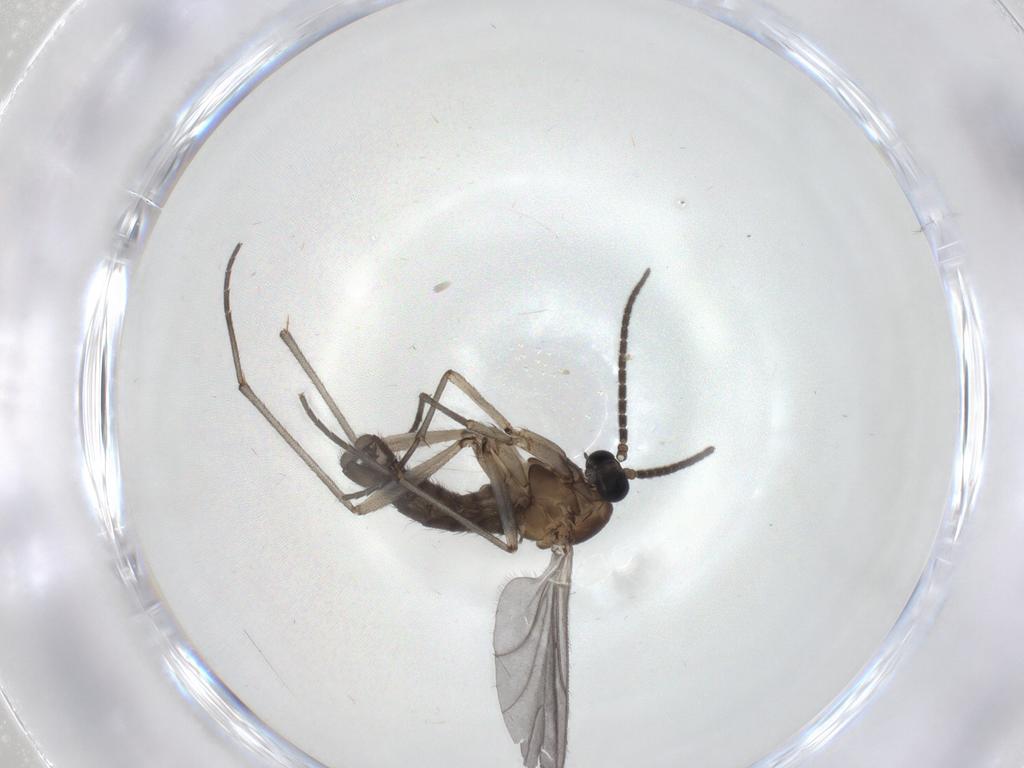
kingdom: Animalia
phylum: Arthropoda
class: Insecta
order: Diptera
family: Sciaridae
